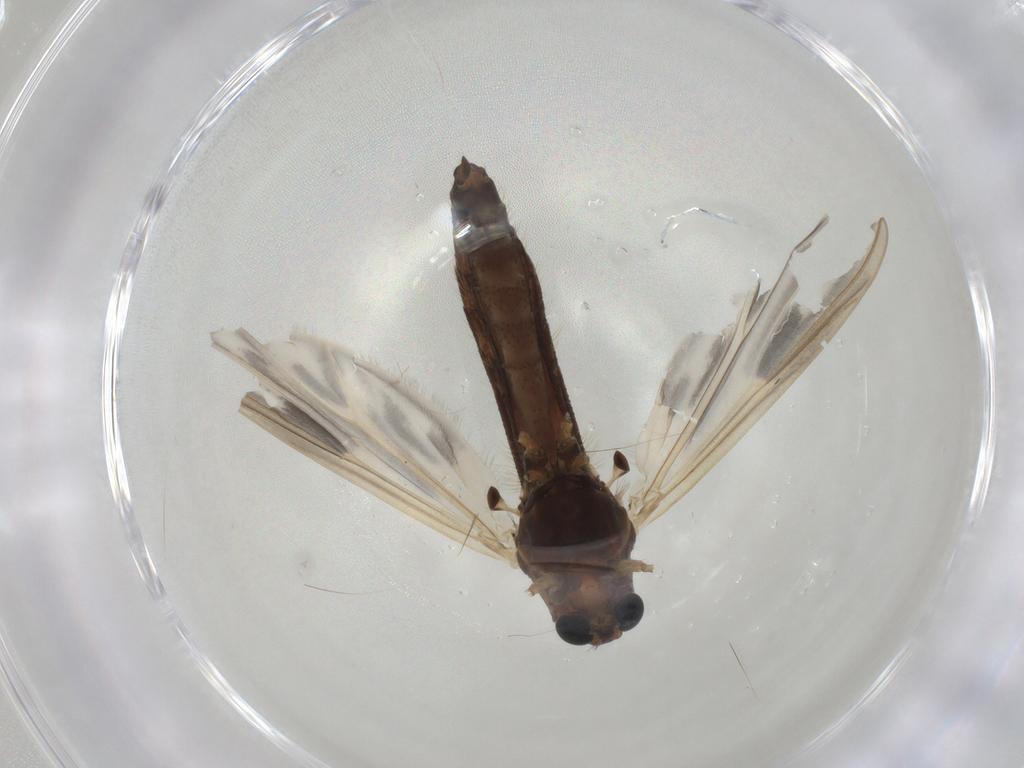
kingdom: Animalia
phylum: Arthropoda
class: Insecta
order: Diptera
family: Chironomidae
